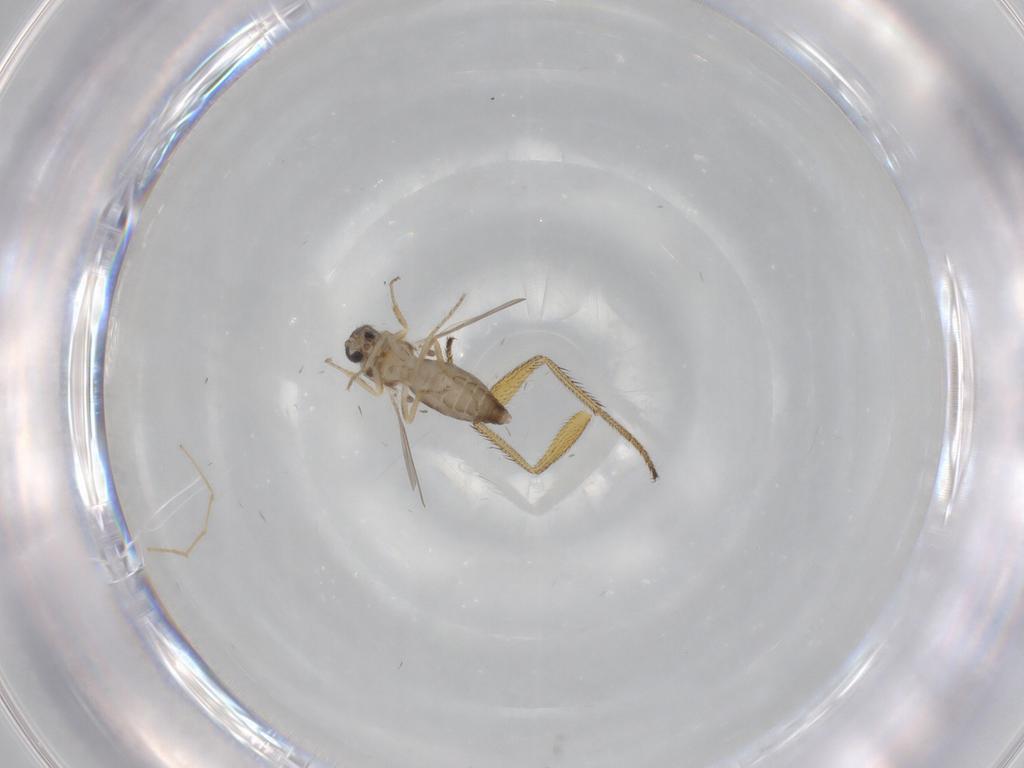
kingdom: Animalia
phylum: Arthropoda
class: Insecta
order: Diptera
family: Ceratopogonidae
